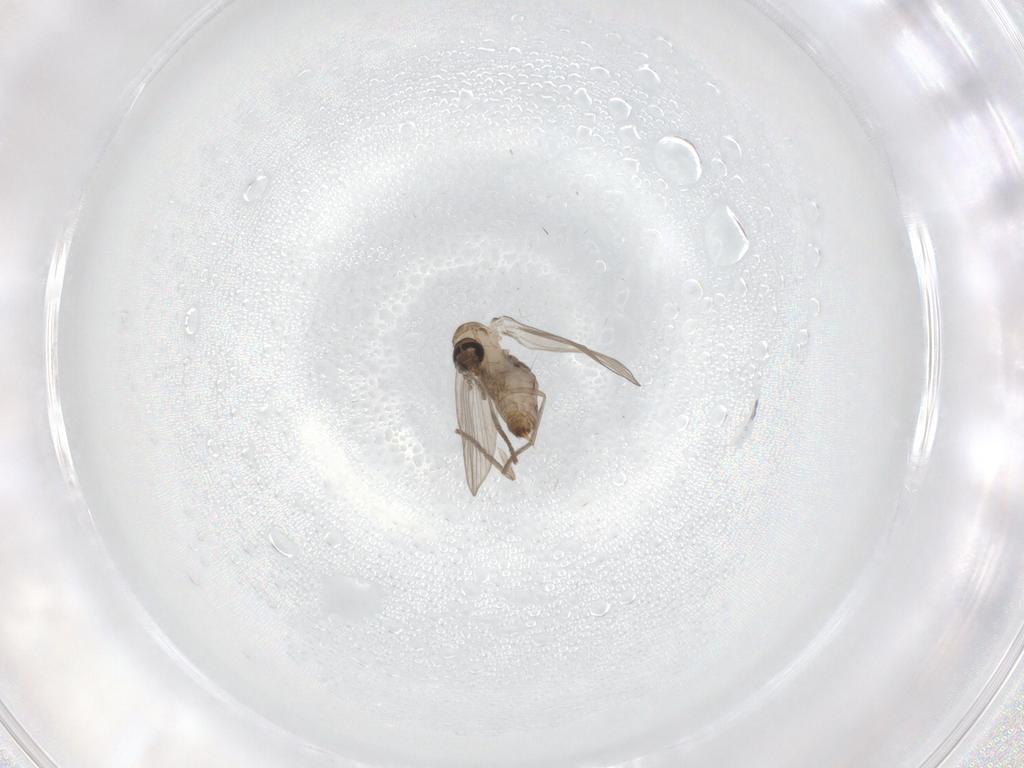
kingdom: Animalia
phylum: Arthropoda
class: Insecta
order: Diptera
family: Psychodidae
